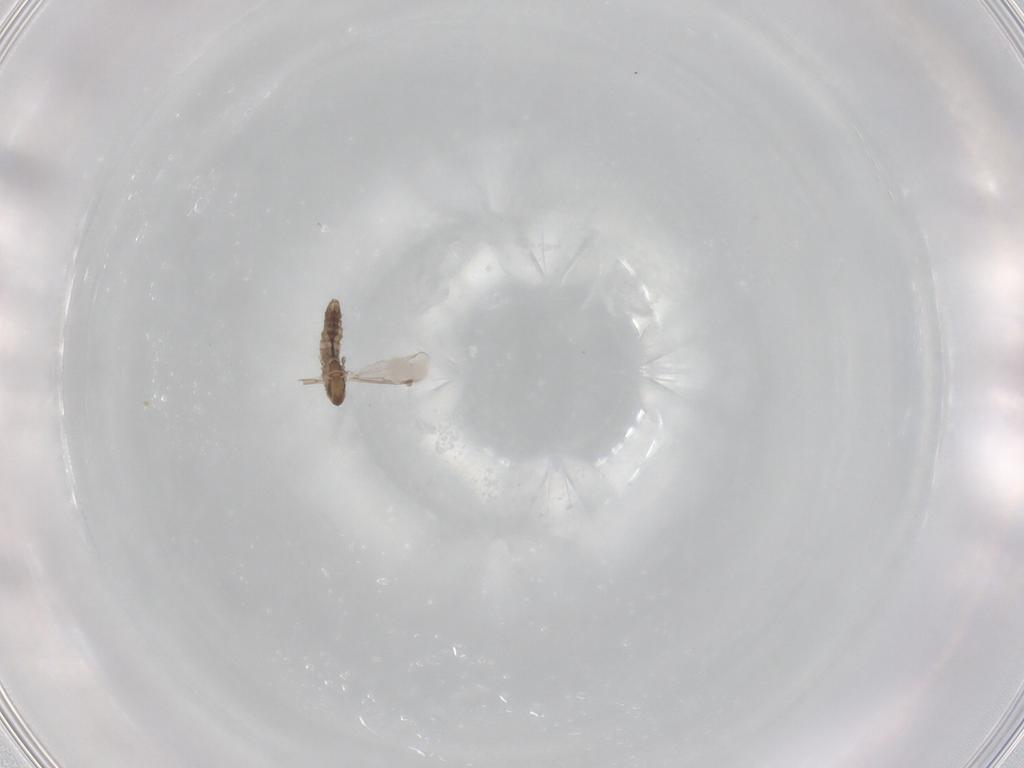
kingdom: Animalia
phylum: Arthropoda
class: Insecta
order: Diptera
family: Chironomidae
